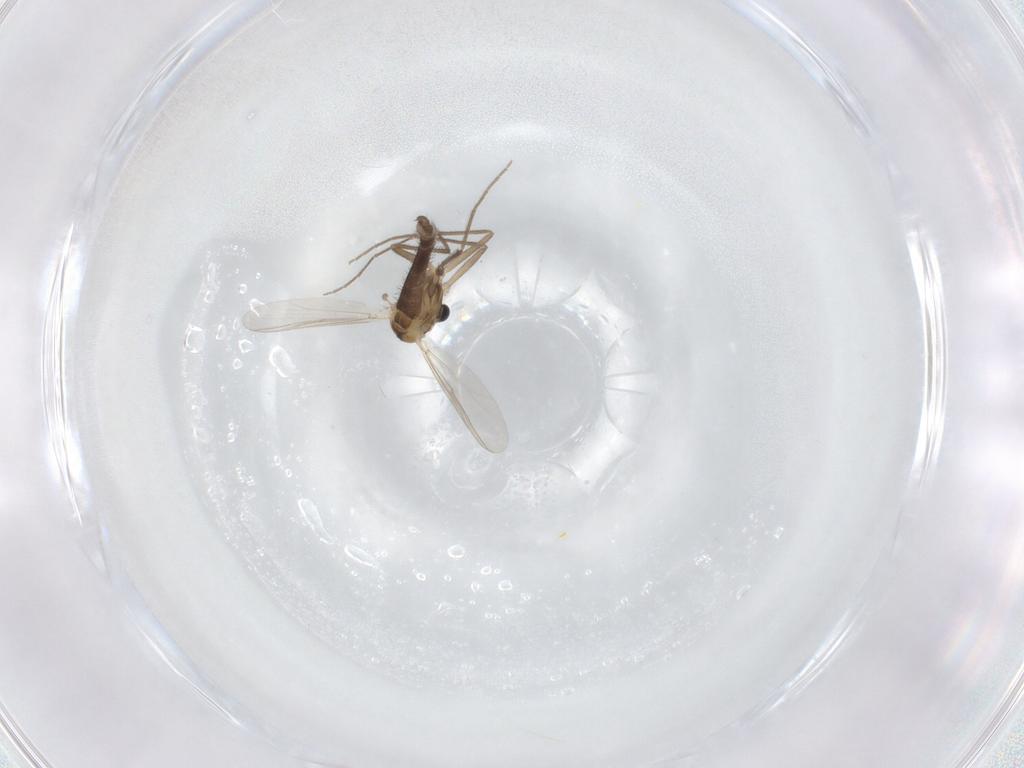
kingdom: Animalia
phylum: Arthropoda
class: Insecta
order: Diptera
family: Chironomidae
